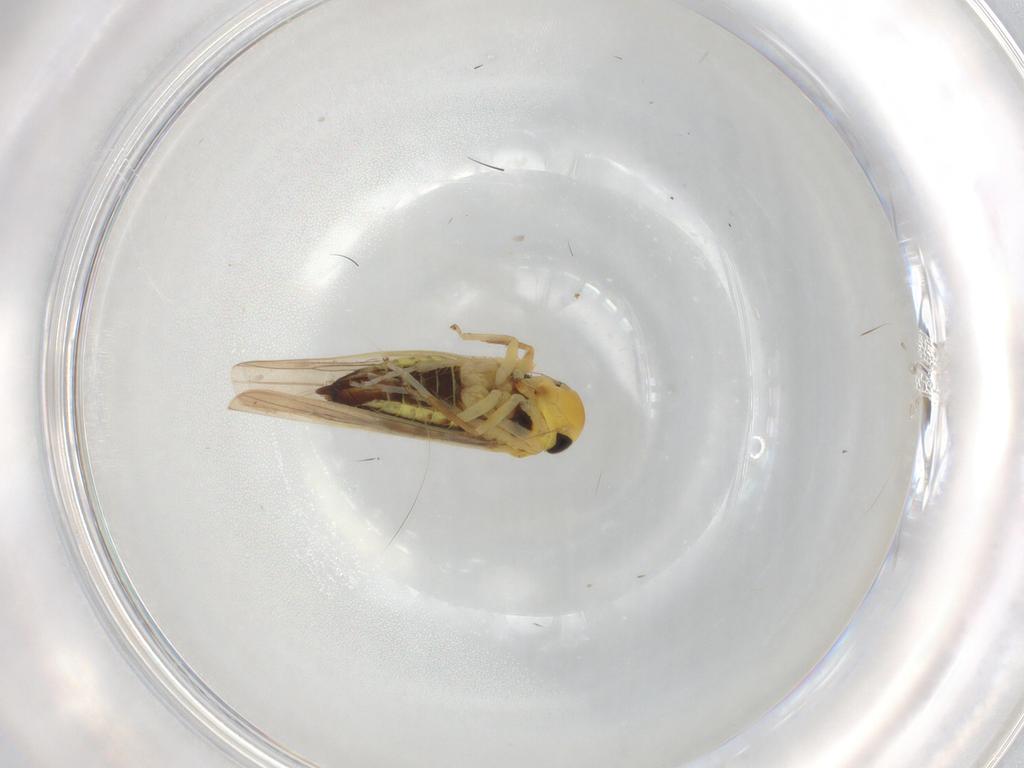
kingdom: Animalia
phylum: Arthropoda
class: Insecta
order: Hemiptera
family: Cicadellidae
